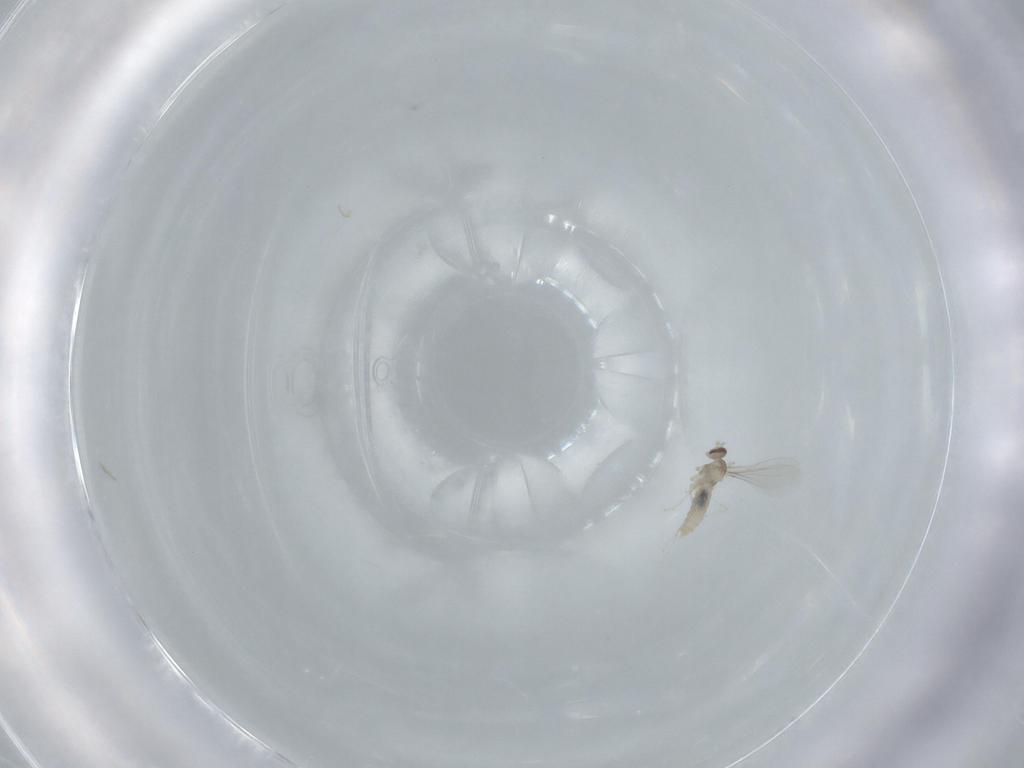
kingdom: Animalia
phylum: Arthropoda
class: Insecta
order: Diptera
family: Cecidomyiidae
